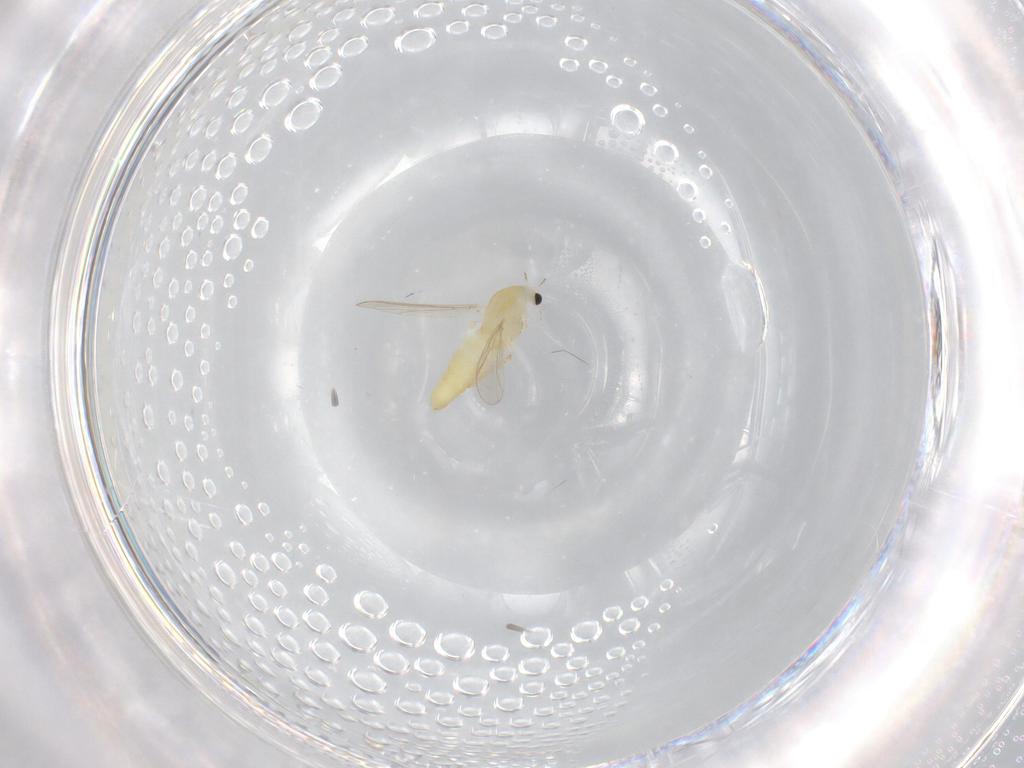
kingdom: Animalia
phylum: Arthropoda
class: Insecta
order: Diptera
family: Chironomidae
